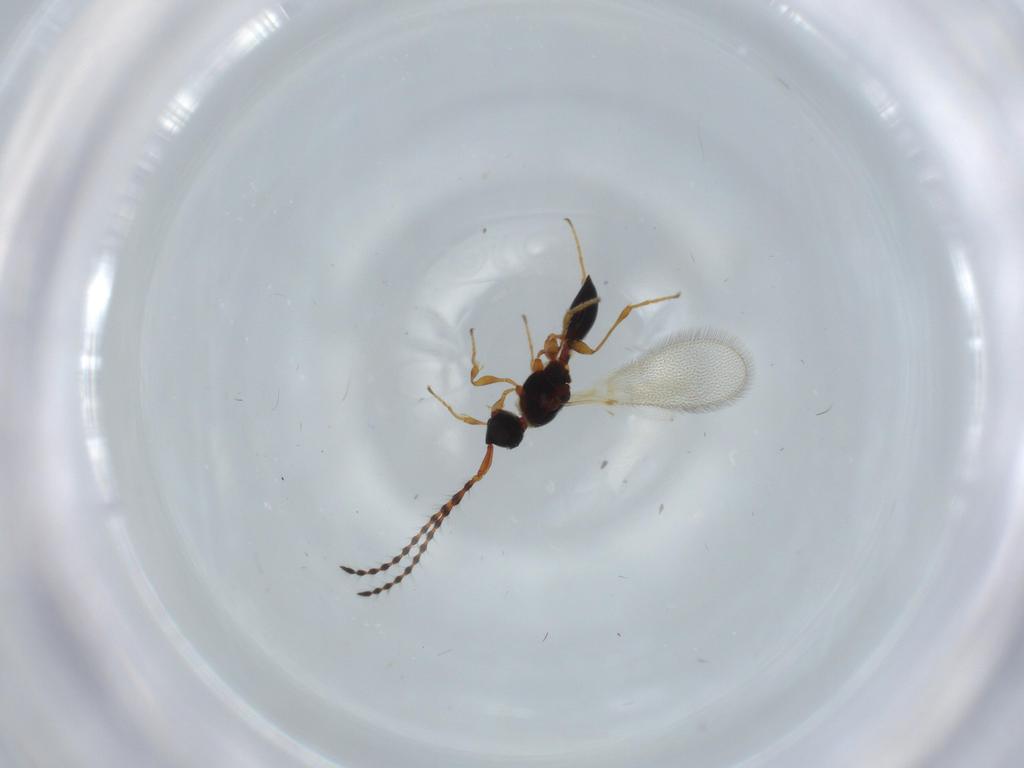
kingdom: Animalia
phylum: Arthropoda
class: Insecta
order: Hymenoptera
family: Diapriidae
